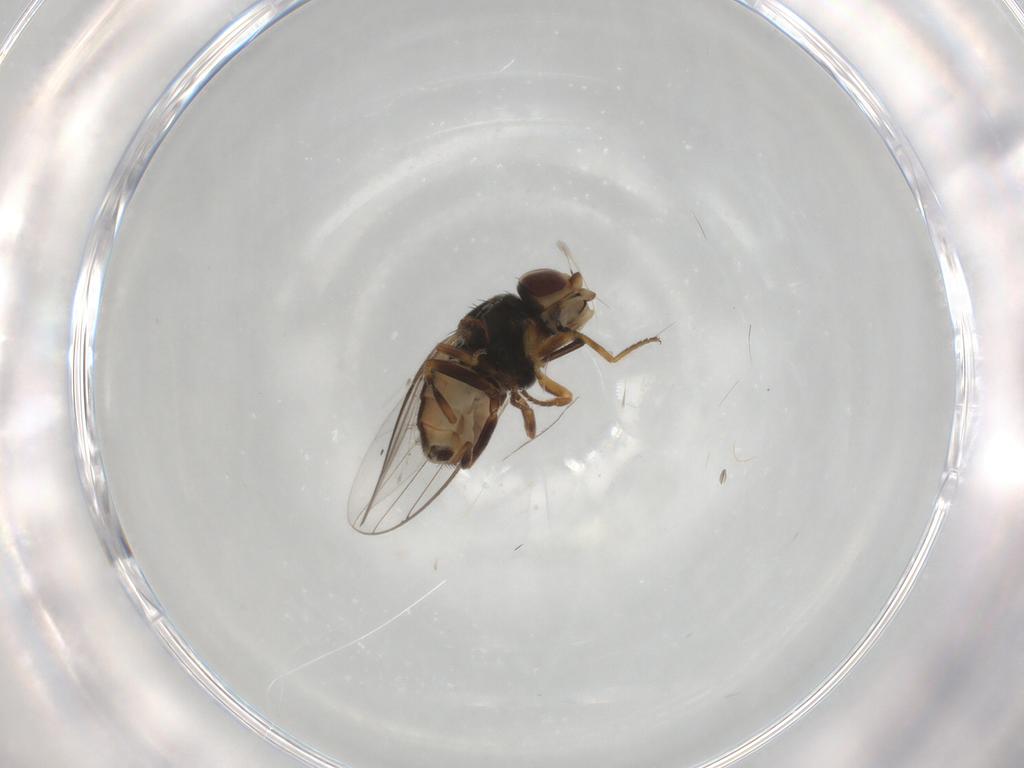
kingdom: Animalia
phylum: Arthropoda
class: Insecta
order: Diptera
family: Chloropidae
